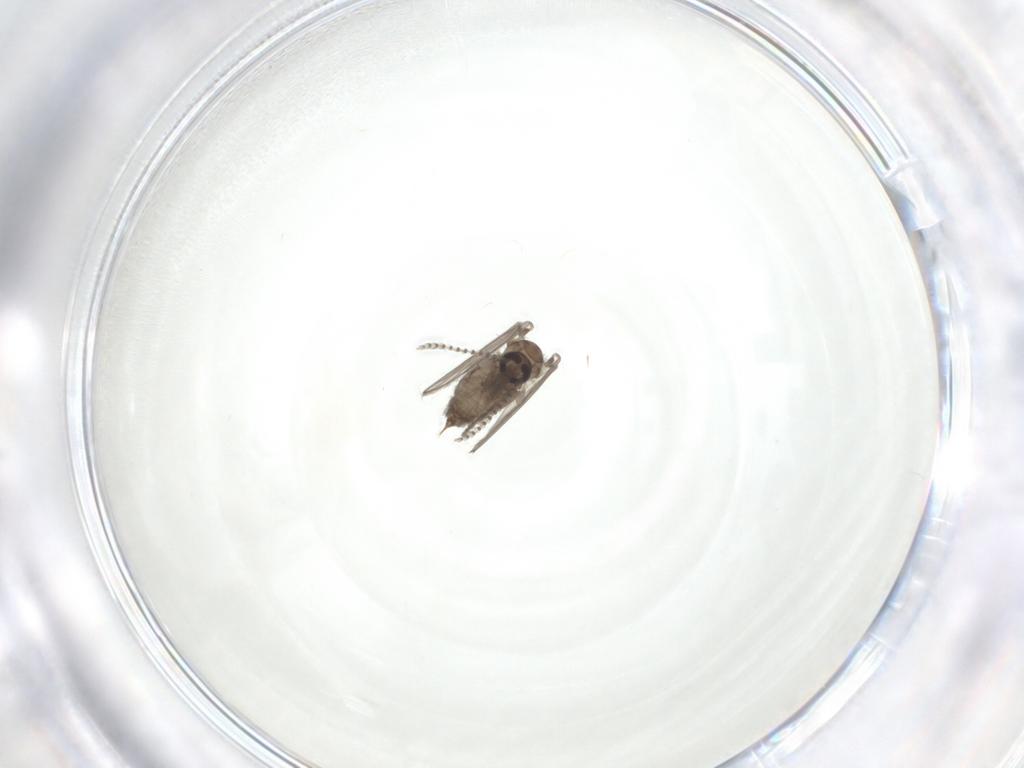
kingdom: Animalia
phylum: Arthropoda
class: Insecta
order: Diptera
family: Psychodidae
